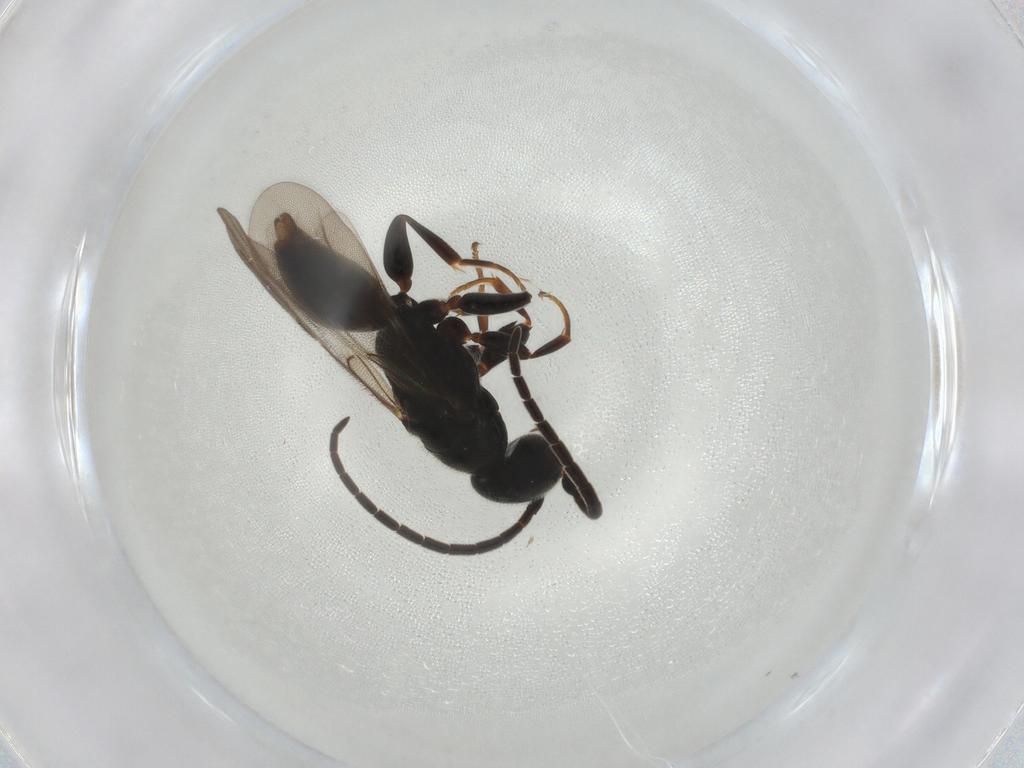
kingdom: Animalia
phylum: Arthropoda
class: Insecta
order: Hymenoptera
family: Bethylidae
